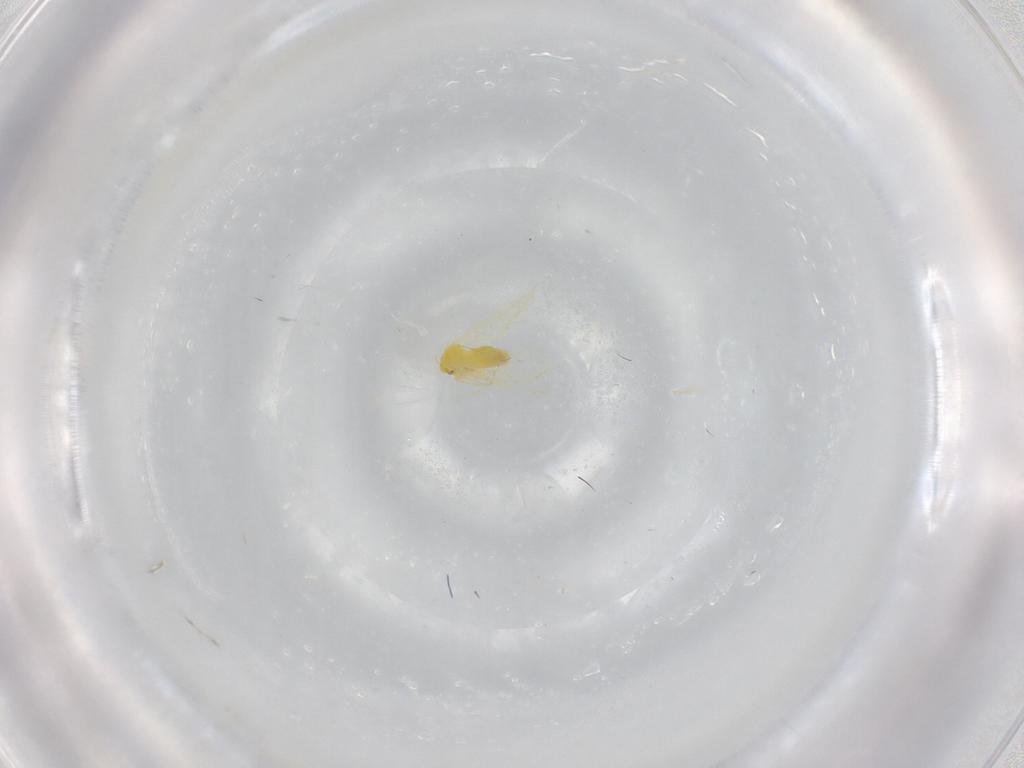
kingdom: Animalia
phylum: Arthropoda
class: Insecta
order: Hemiptera
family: Aleyrodidae
